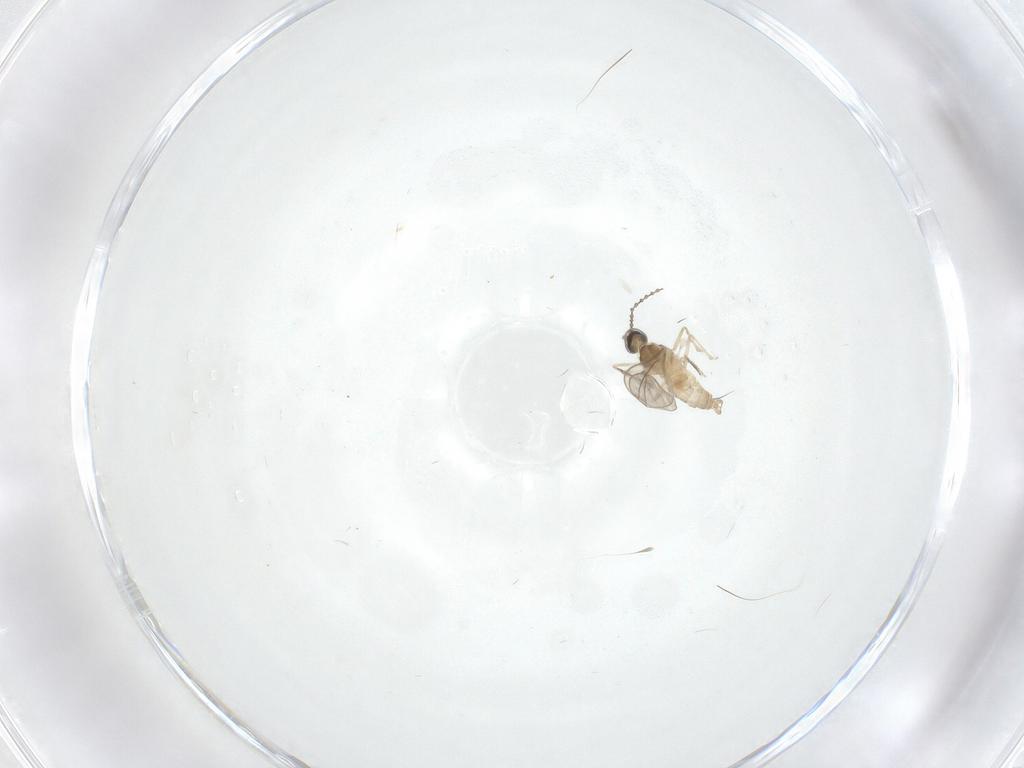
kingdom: Animalia
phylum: Arthropoda
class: Insecta
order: Diptera
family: Cecidomyiidae
